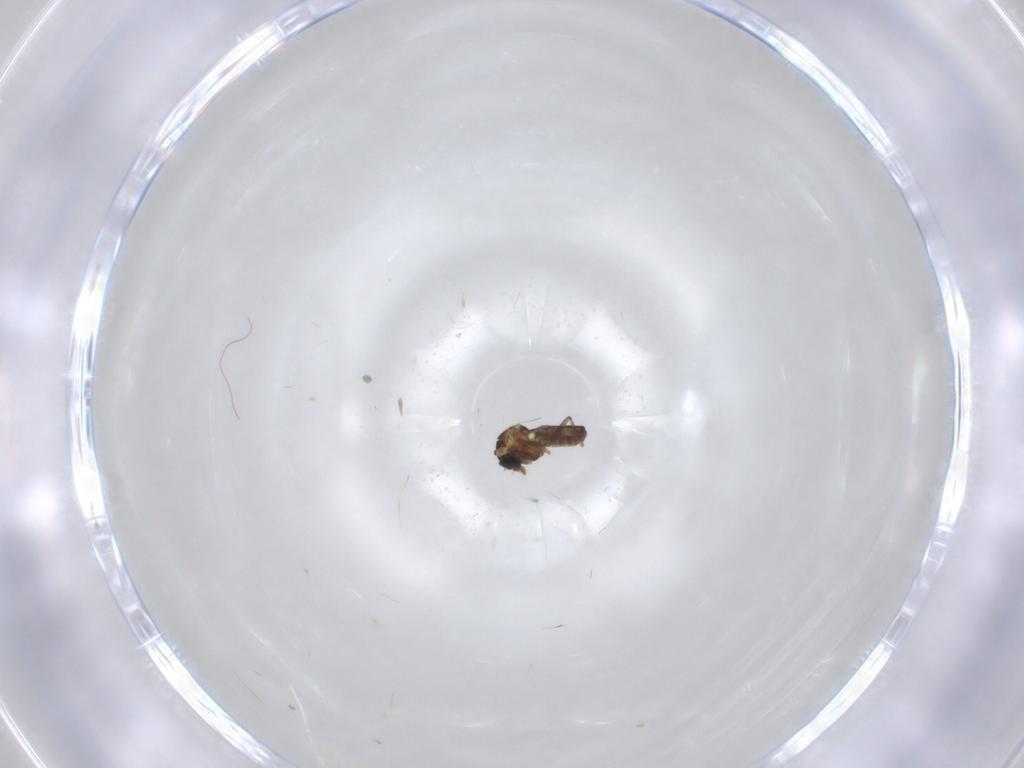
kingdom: Animalia
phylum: Arthropoda
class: Insecta
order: Diptera
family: Ceratopogonidae
